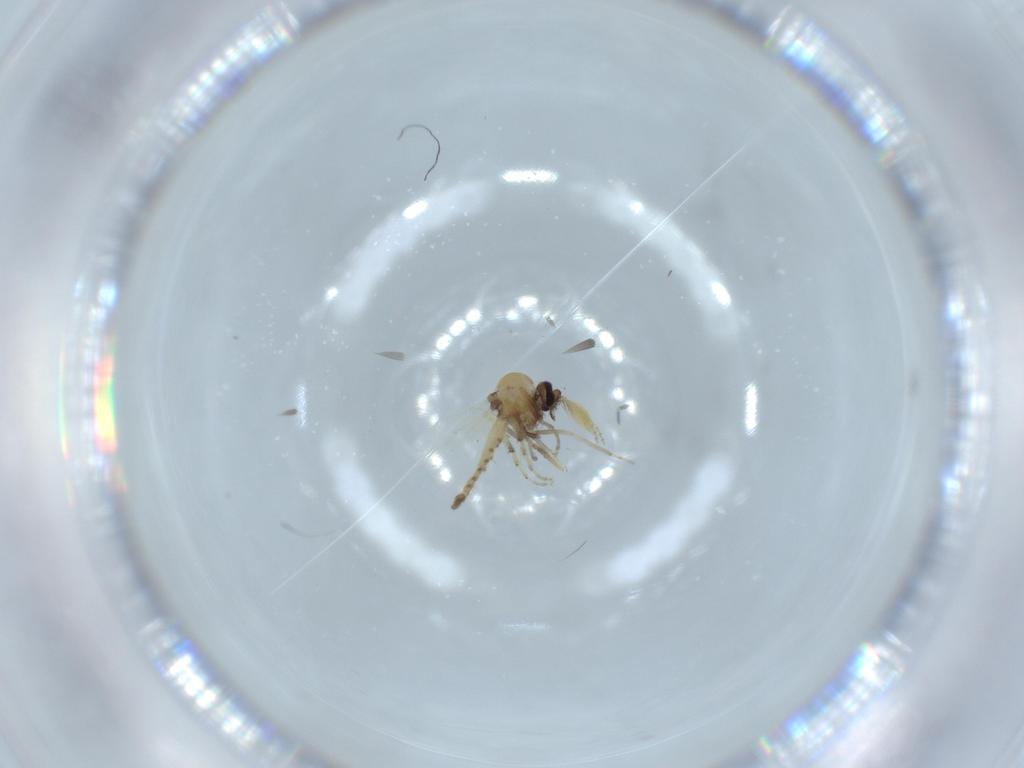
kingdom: Animalia
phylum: Arthropoda
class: Insecta
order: Diptera
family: Ceratopogonidae
